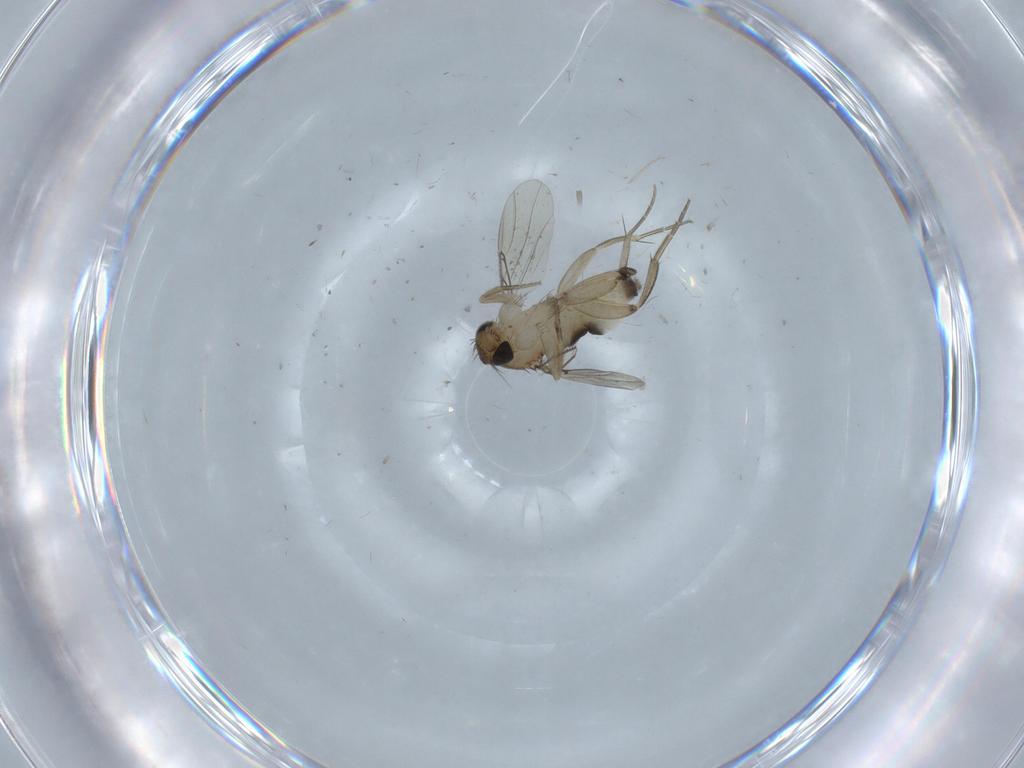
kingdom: Animalia
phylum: Arthropoda
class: Insecta
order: Diptera
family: Phoridae
